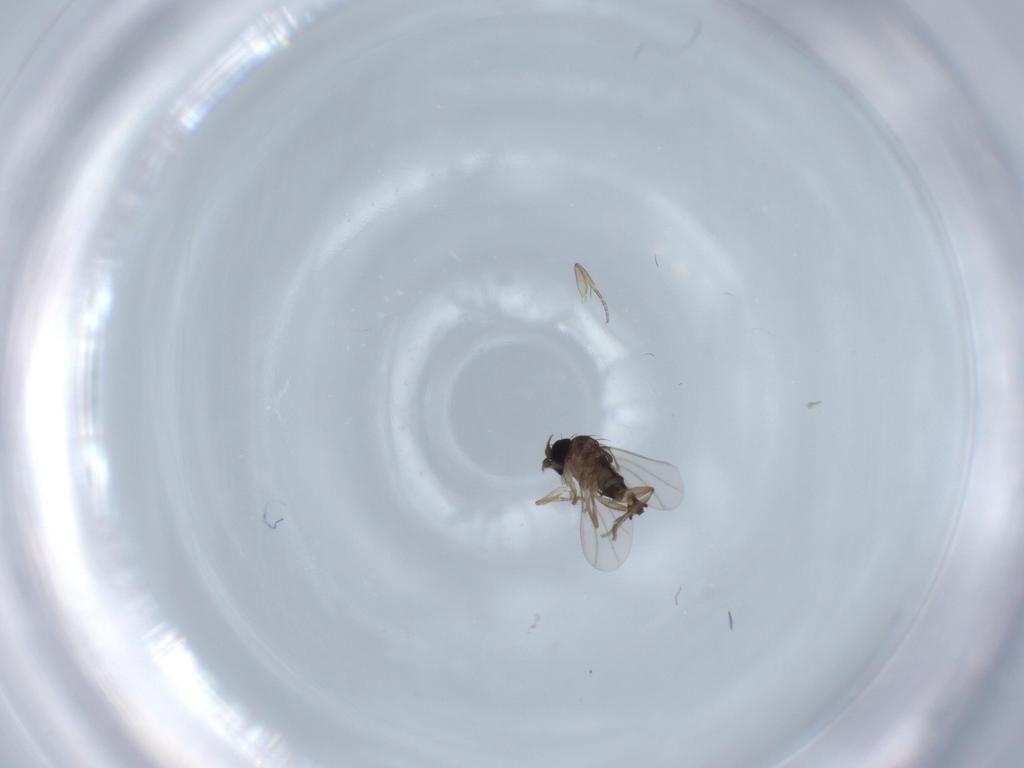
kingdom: Animalia
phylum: Arthropoda
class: Insecta
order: Diptera
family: Phoridae
